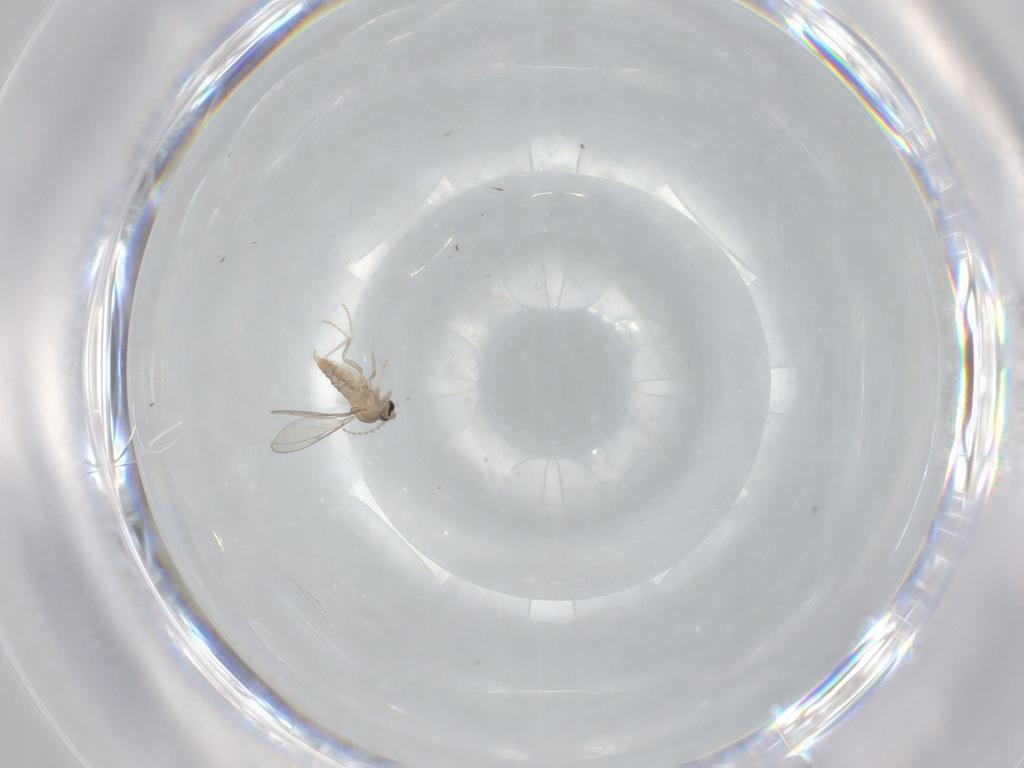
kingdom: Animalia
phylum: Arthropoda
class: Insecta
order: Diptera
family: Cecidomyiidae
